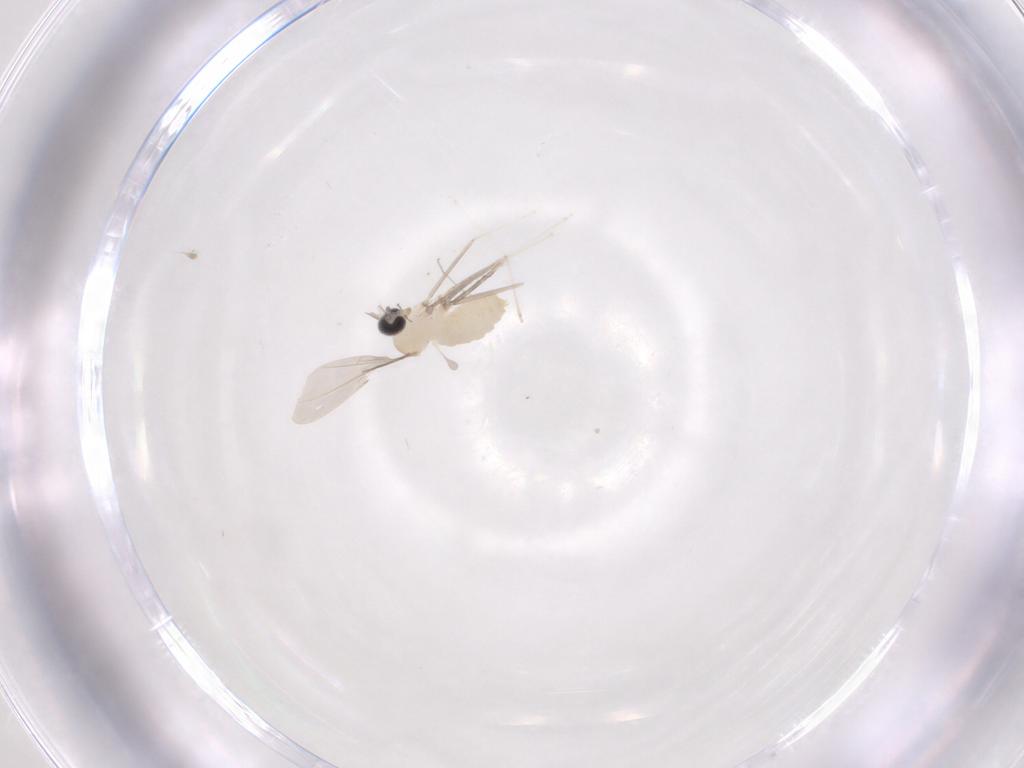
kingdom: Animalia
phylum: Arthropoda
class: Insecta
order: Diptera
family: Cecidomyiidae
